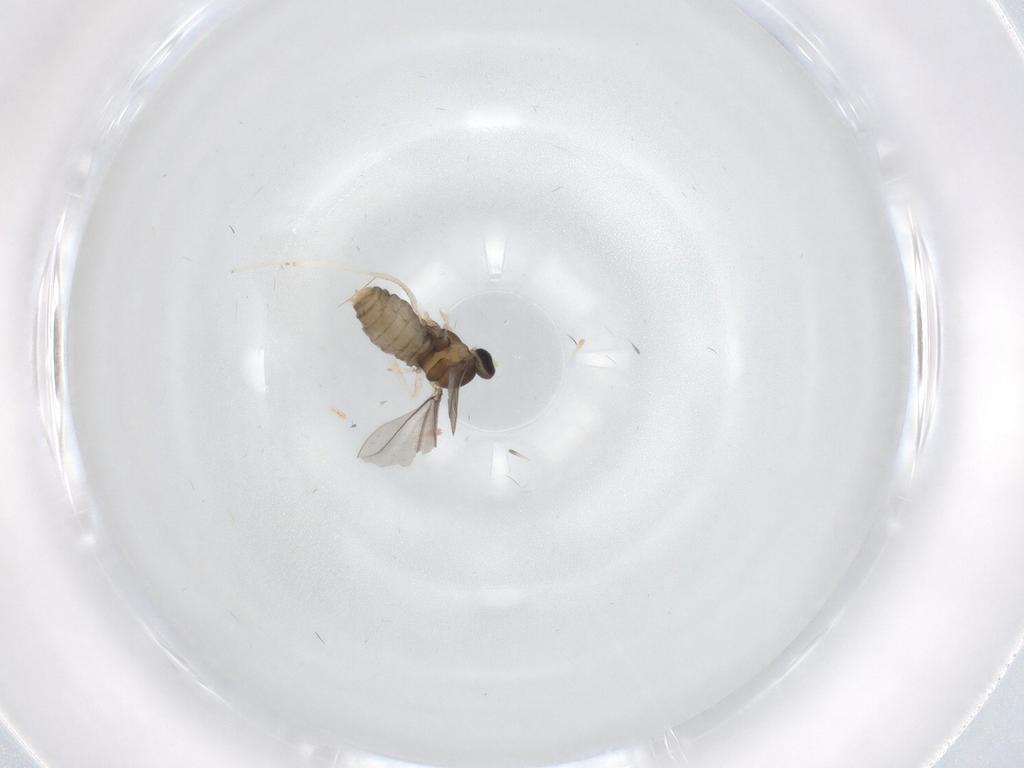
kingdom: Animalia
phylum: Arthropoda
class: Insecta
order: Diptera
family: Cecidomyiidae
